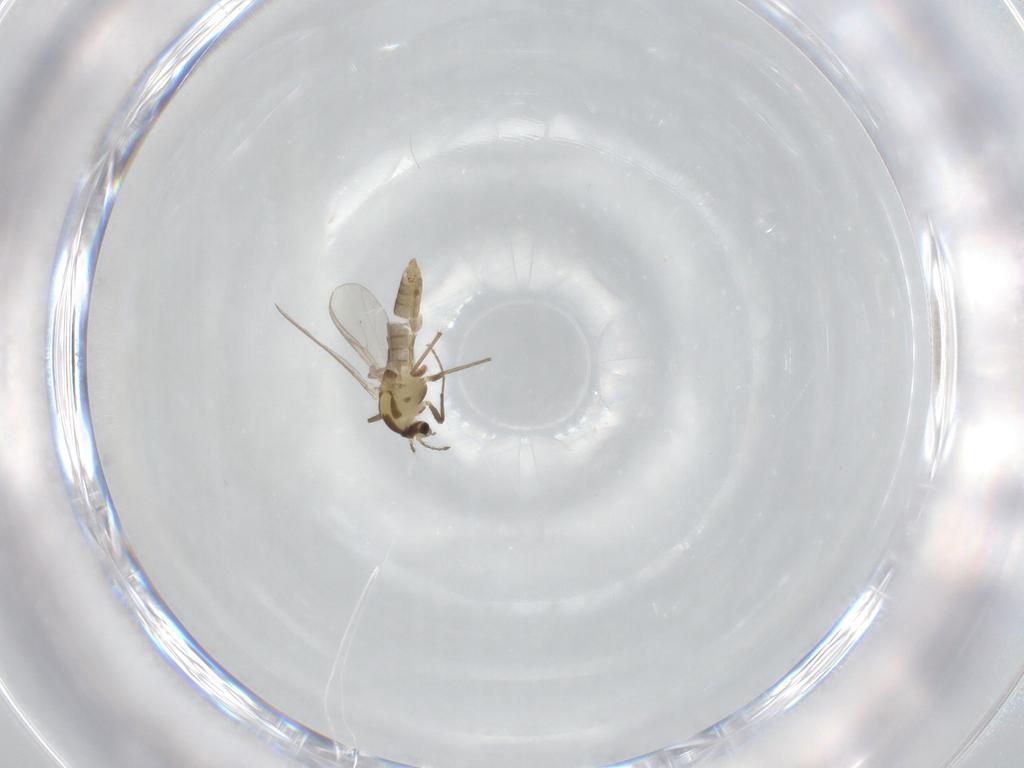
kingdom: Animalia
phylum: Arthropoda
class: Insecta
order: Diptera
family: Chironomidae
